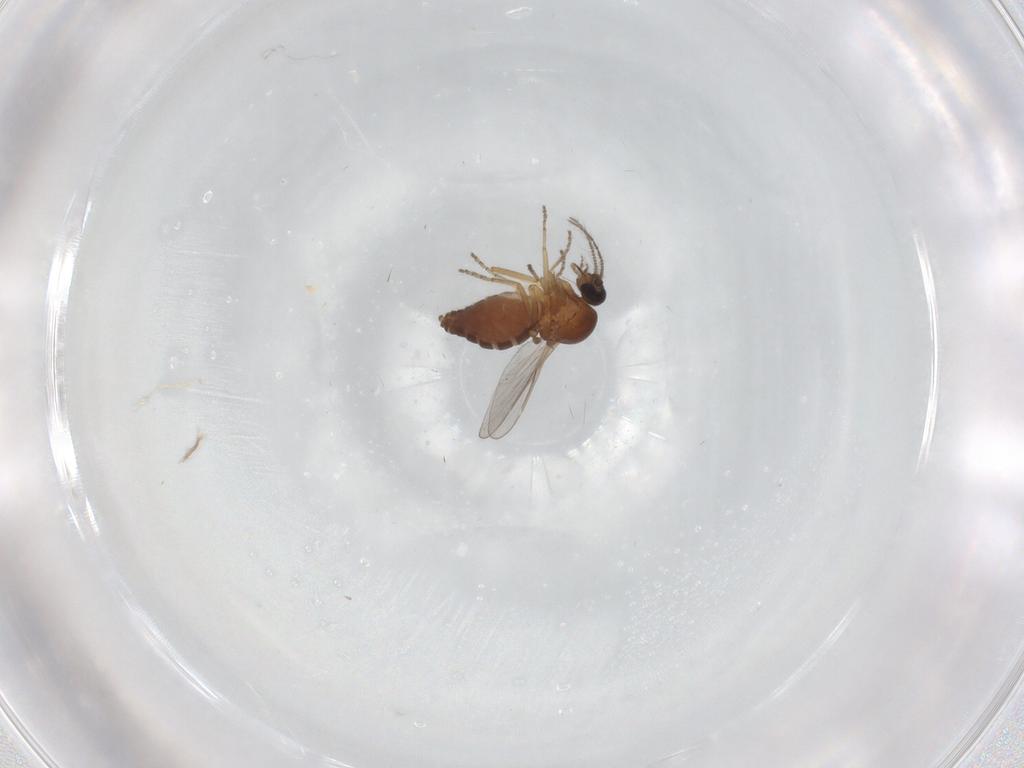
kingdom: Animalia
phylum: Arthropoda
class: Insecta
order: Diptera
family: Ceratopogonidae
